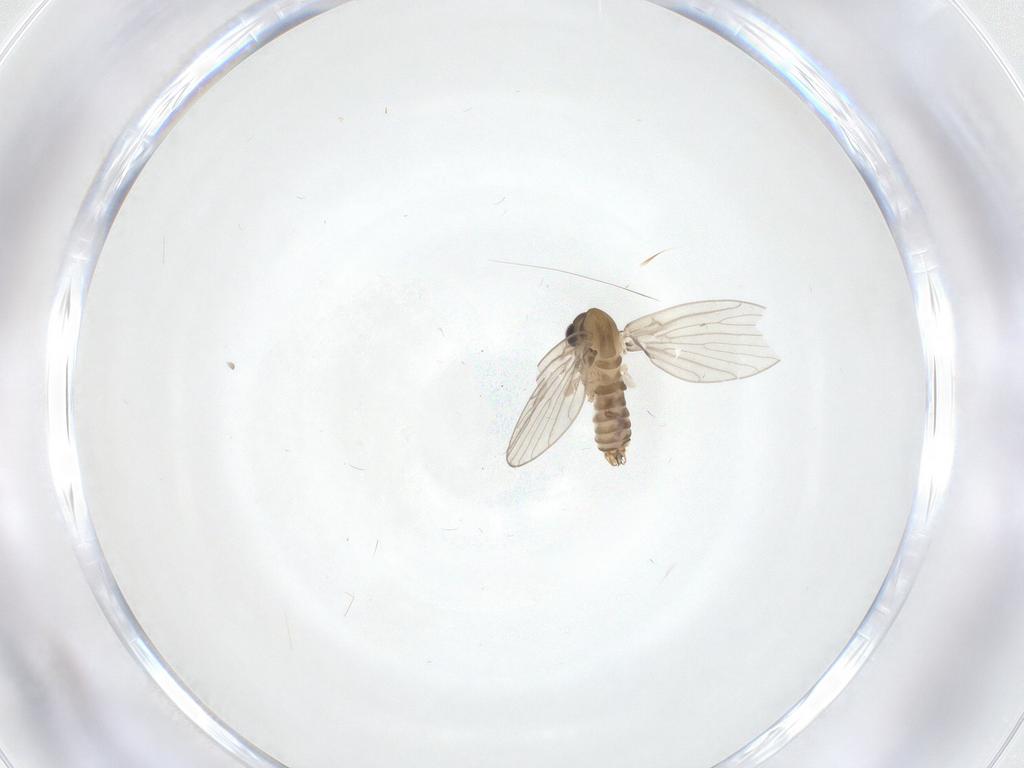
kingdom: Animalia
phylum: Arthropoda
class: Insecta
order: Diptera
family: Psychodidae
